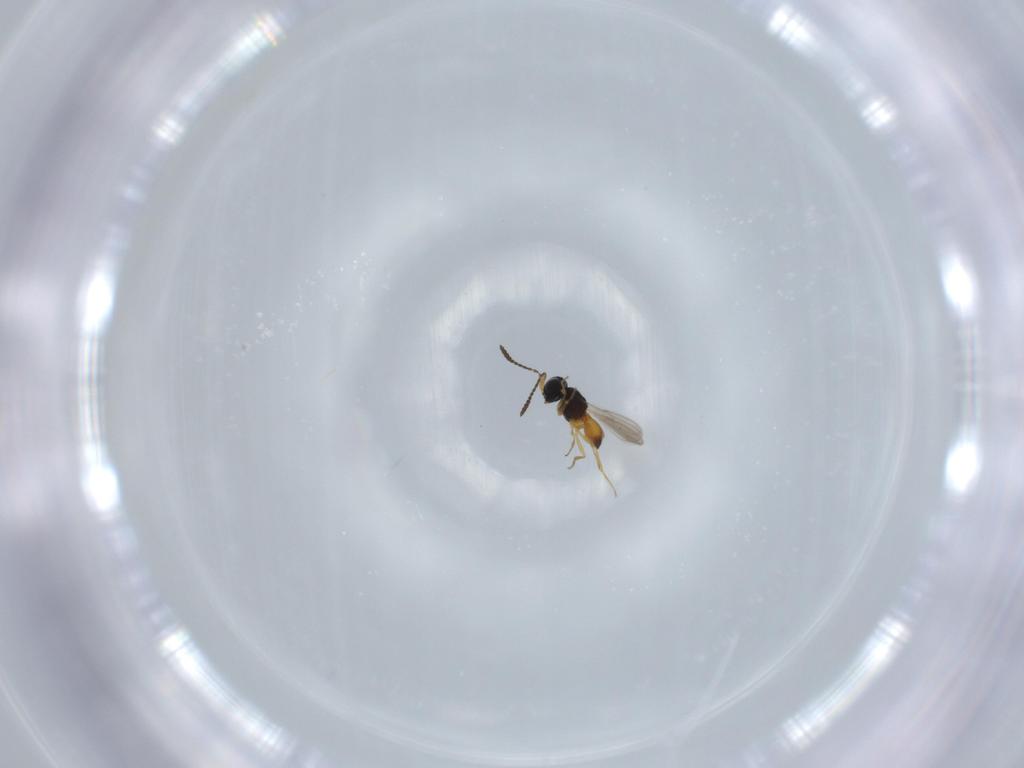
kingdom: Animalia
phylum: Arthropoda
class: Insecta
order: Hymenoptera
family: Scelionidae
